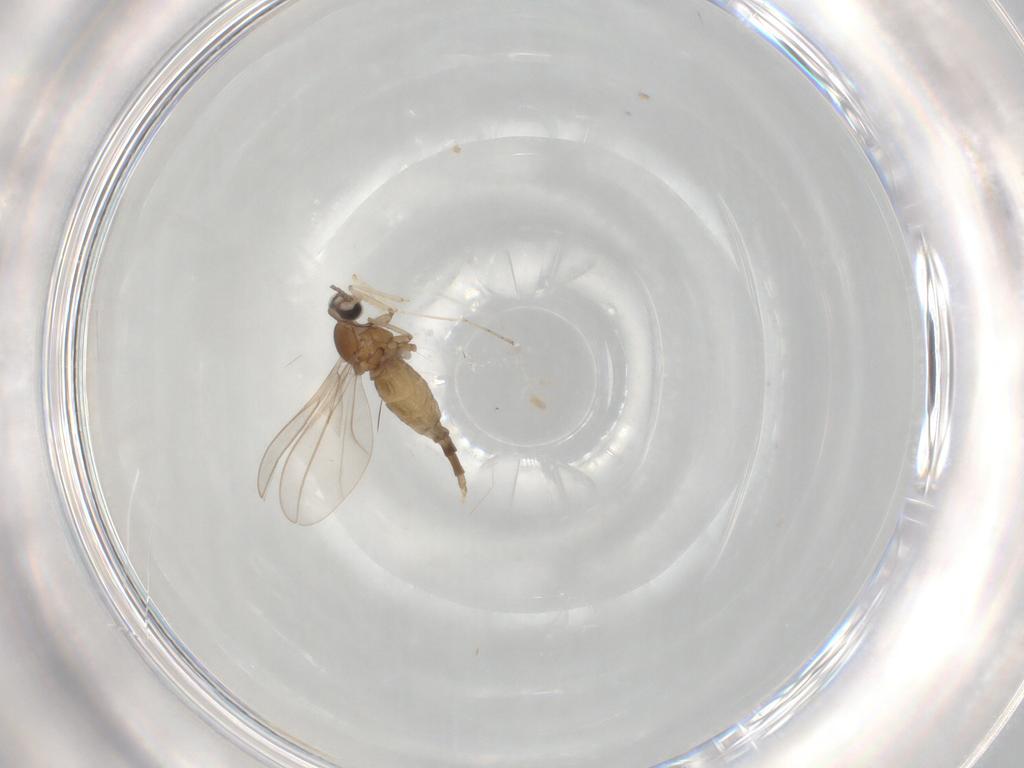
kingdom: Animalia
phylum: Arthropoda
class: Insecta
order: Diptera
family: Cecidomyiidae
